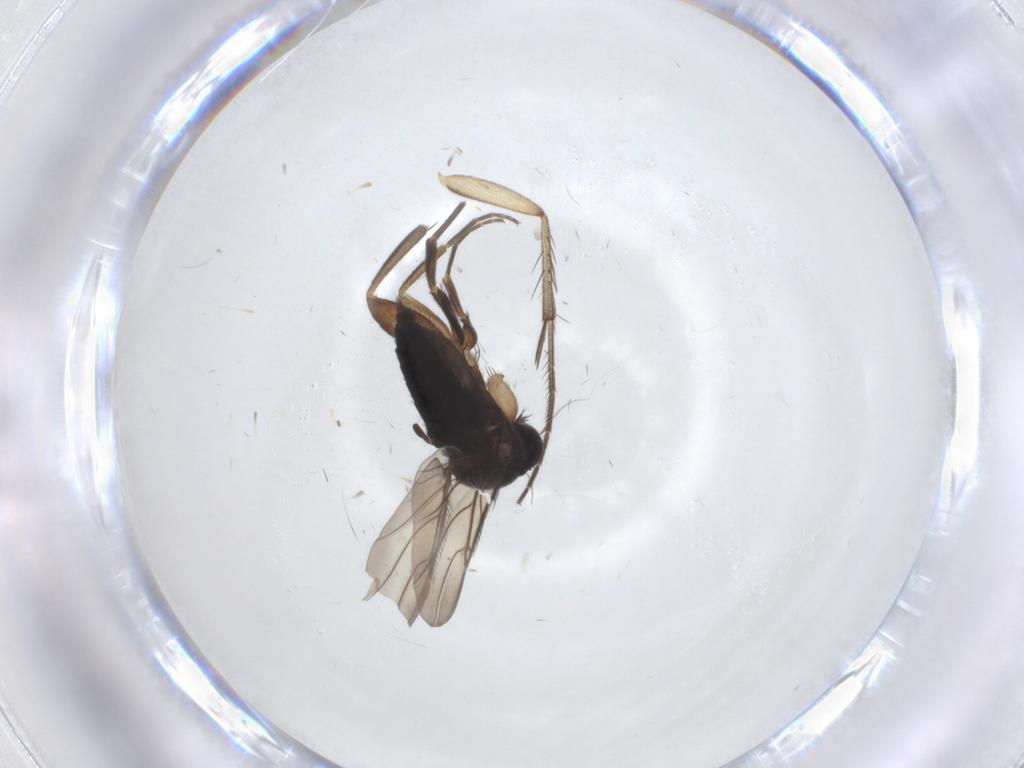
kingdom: Animalia
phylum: Arthropoda
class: Insecta
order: Diptera
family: Phoridae
